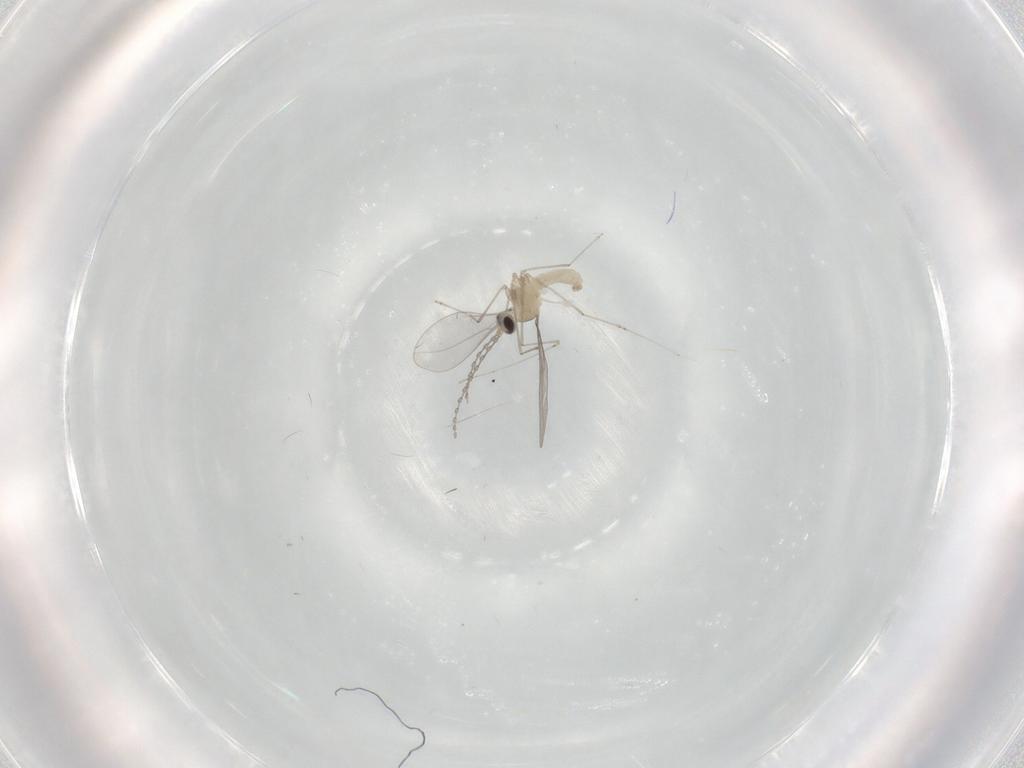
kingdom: Animalia
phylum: Arthropoda
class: Insecta
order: Diptera
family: Cecidomyiidae
